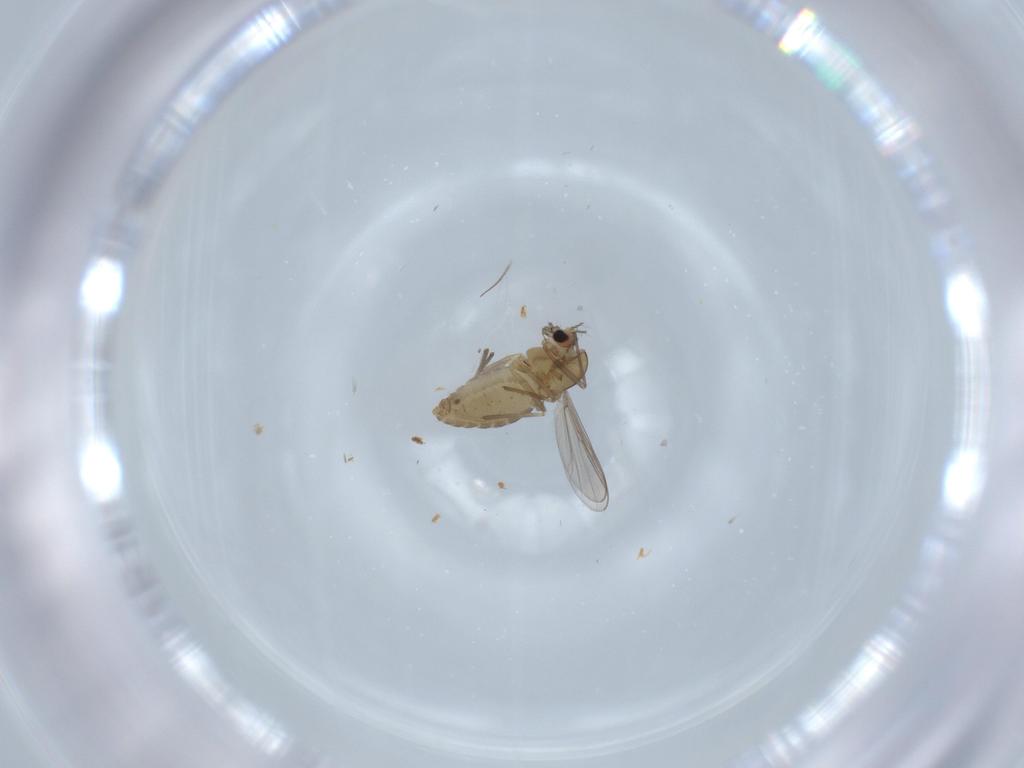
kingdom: Animalia
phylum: Arthropoda
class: Insecta
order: Diptera
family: Chironomidae
